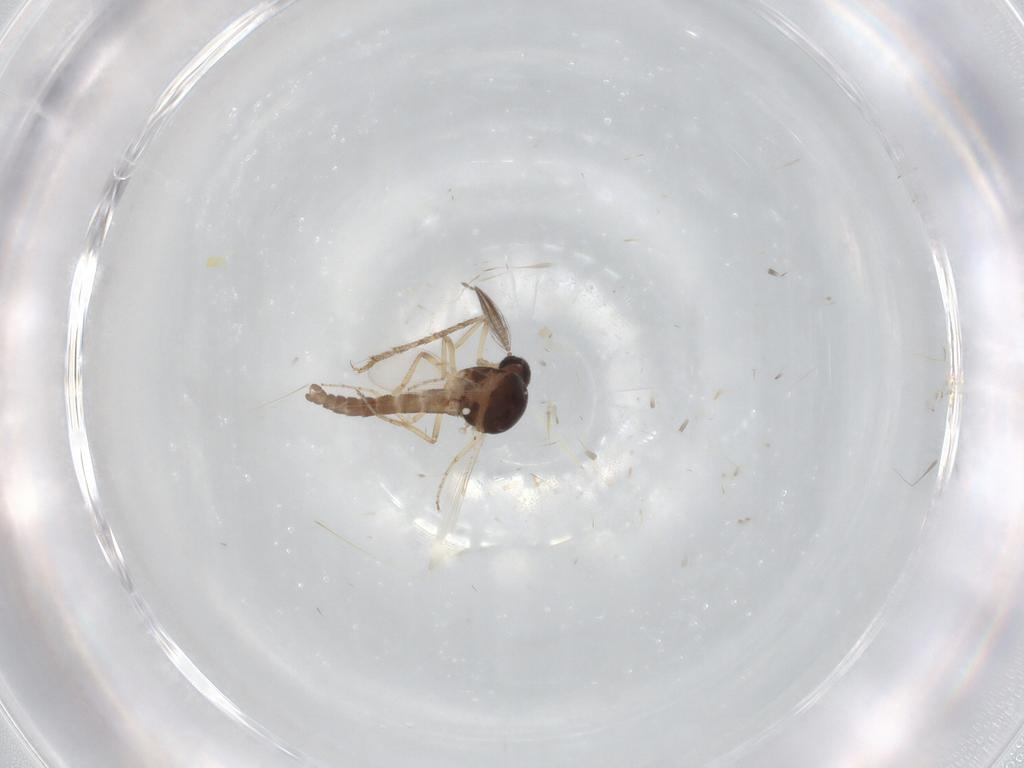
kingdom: Animalia
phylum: Arthropoda
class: Insecta
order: Diptera
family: Ceratopogonidae
